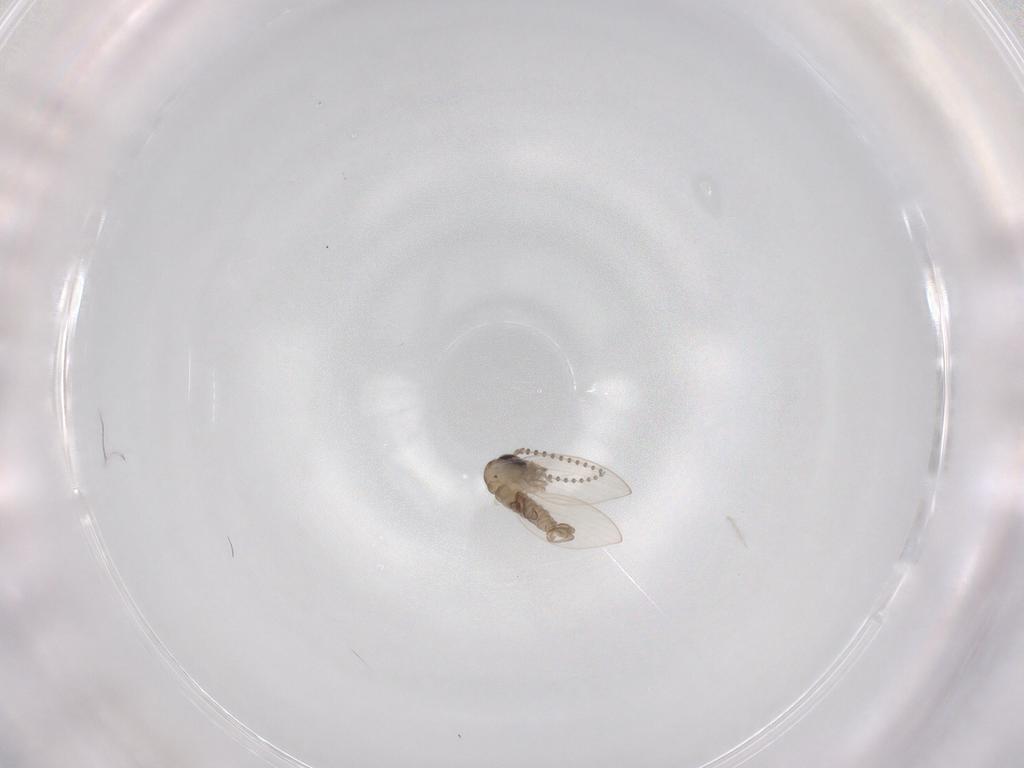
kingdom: Animalia
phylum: Arthropoda
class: Insecta
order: Diptera
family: Psychodidae
